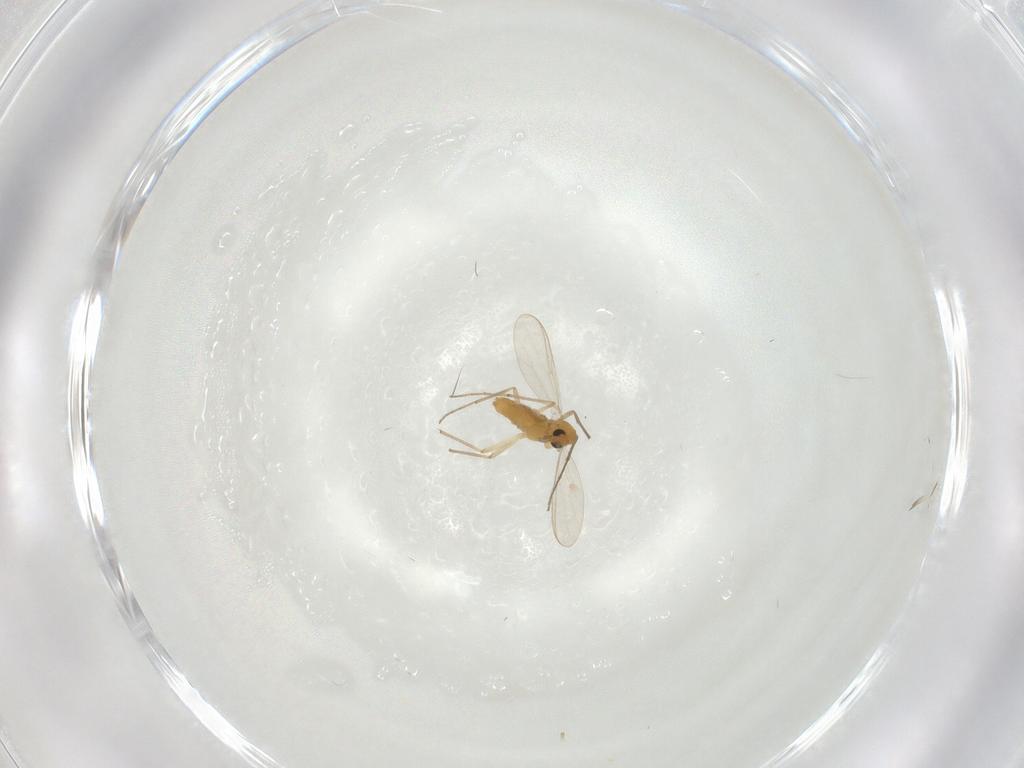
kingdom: Animalia
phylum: Arthropoda
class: Insecta
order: Diptera
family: Chironomidae
